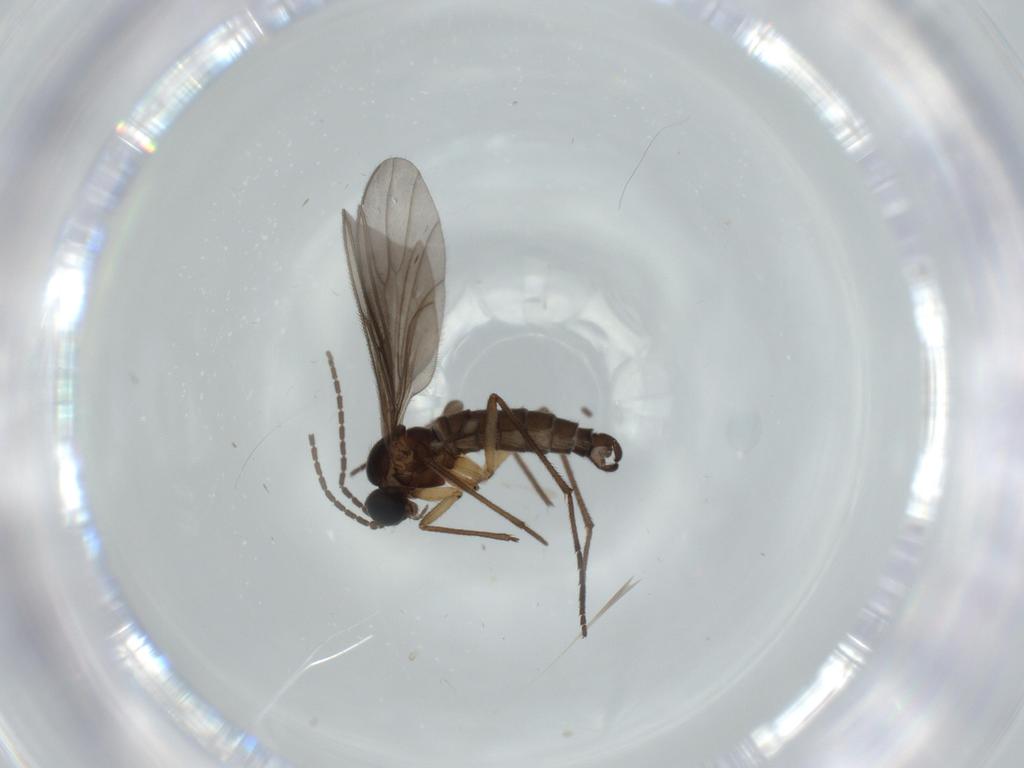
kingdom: Animalia
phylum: Arthropoda
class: Insecta
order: Diptera
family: Sciaridae
